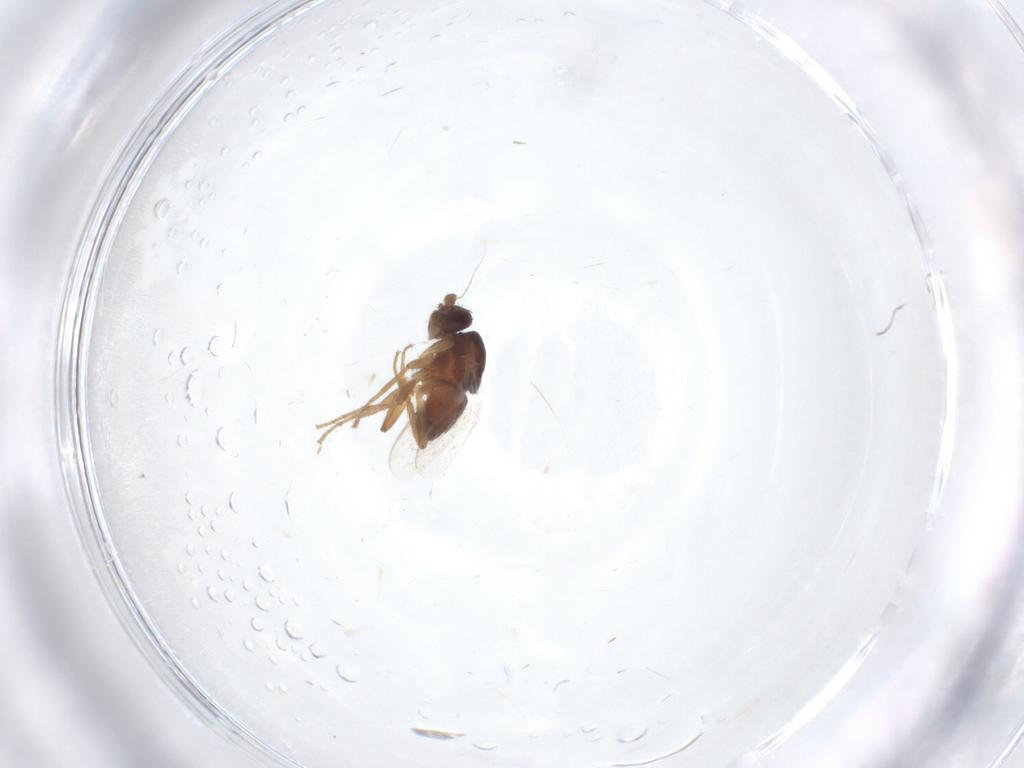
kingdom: Animalia
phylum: Arthropoda
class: Insecta
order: Diptera
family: Sphaeroceridae
